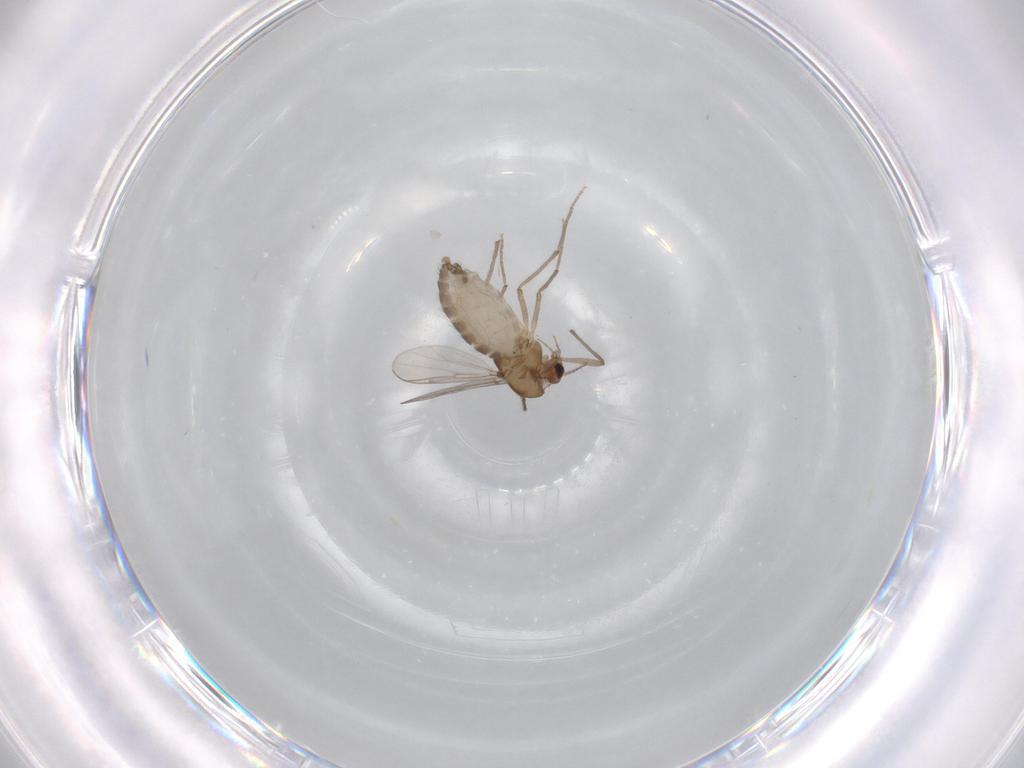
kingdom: Animalia
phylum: Arthropoda
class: Insecta
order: Diptera
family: Chironomidae
